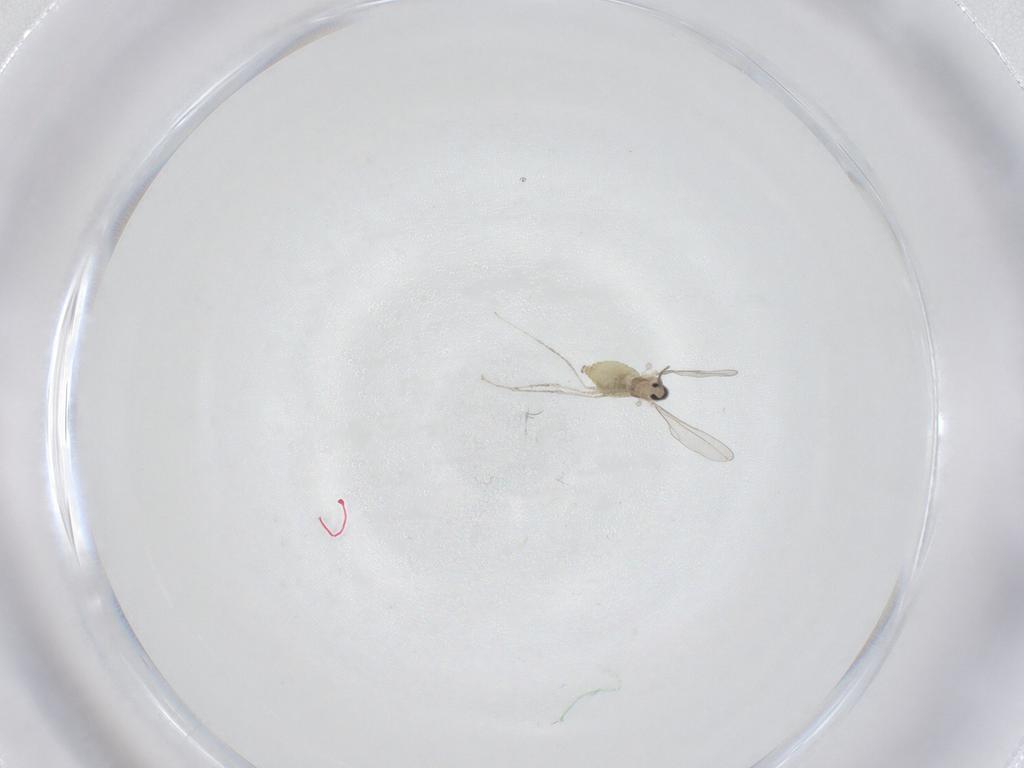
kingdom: Animalia
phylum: Arthropoda
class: Insecta
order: Diptera
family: Cecidomyiidae
